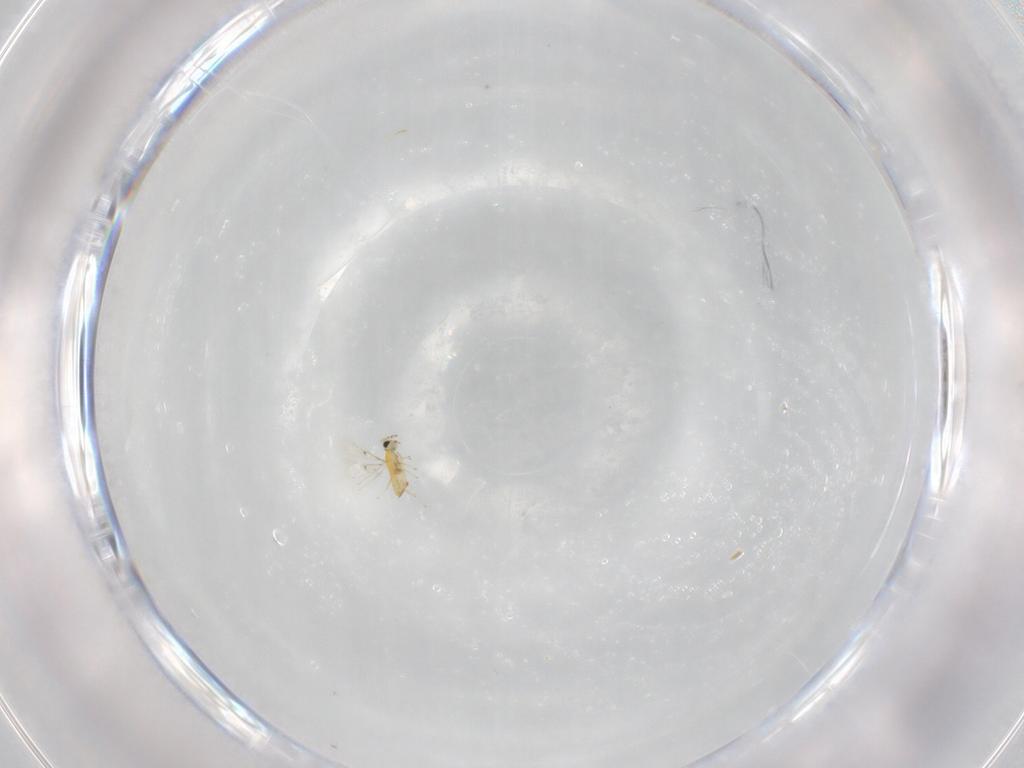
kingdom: Animalia
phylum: Arthropoda
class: Insecta
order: Hymenoptera
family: Trichogrammatidae
